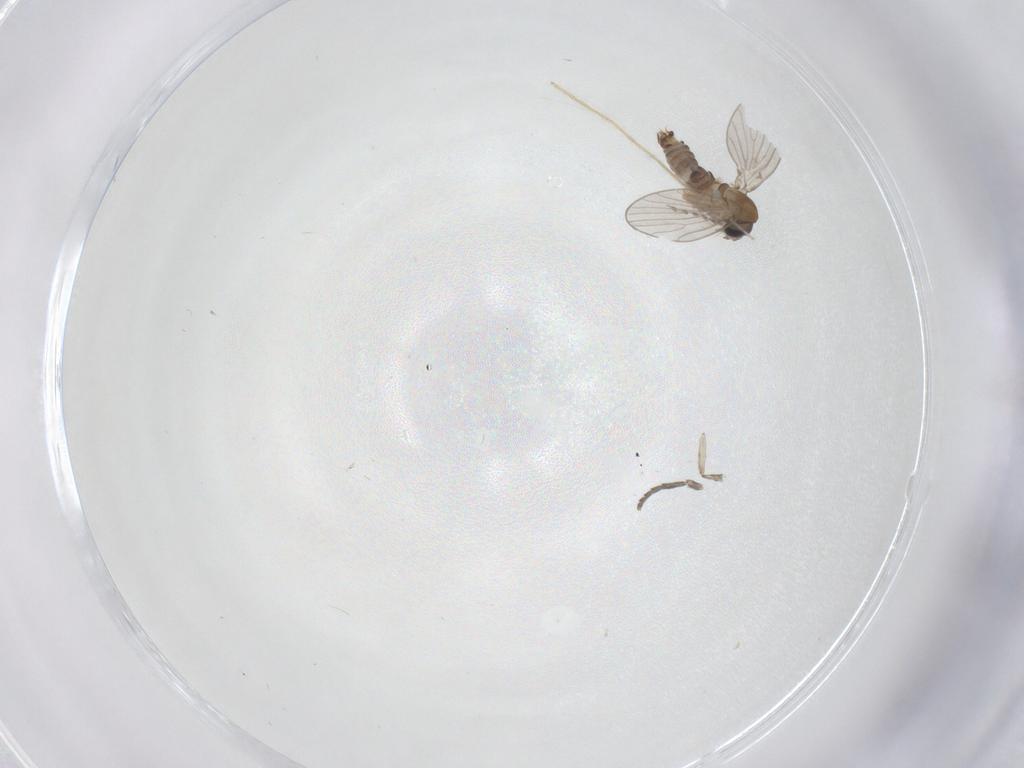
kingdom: Animalia
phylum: Arthropoda
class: Insecta
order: Diptera
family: Chironomidae
